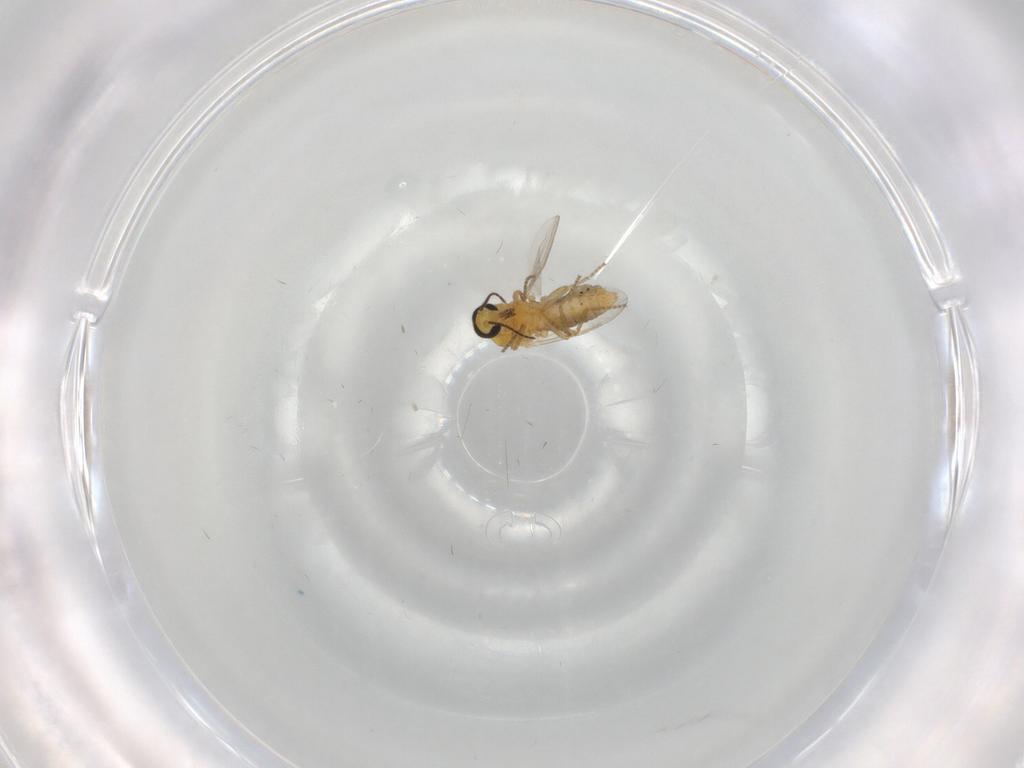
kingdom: Animalia
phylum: Arthropoda
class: Insecta
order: Diptera
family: Ceratopogonidae
